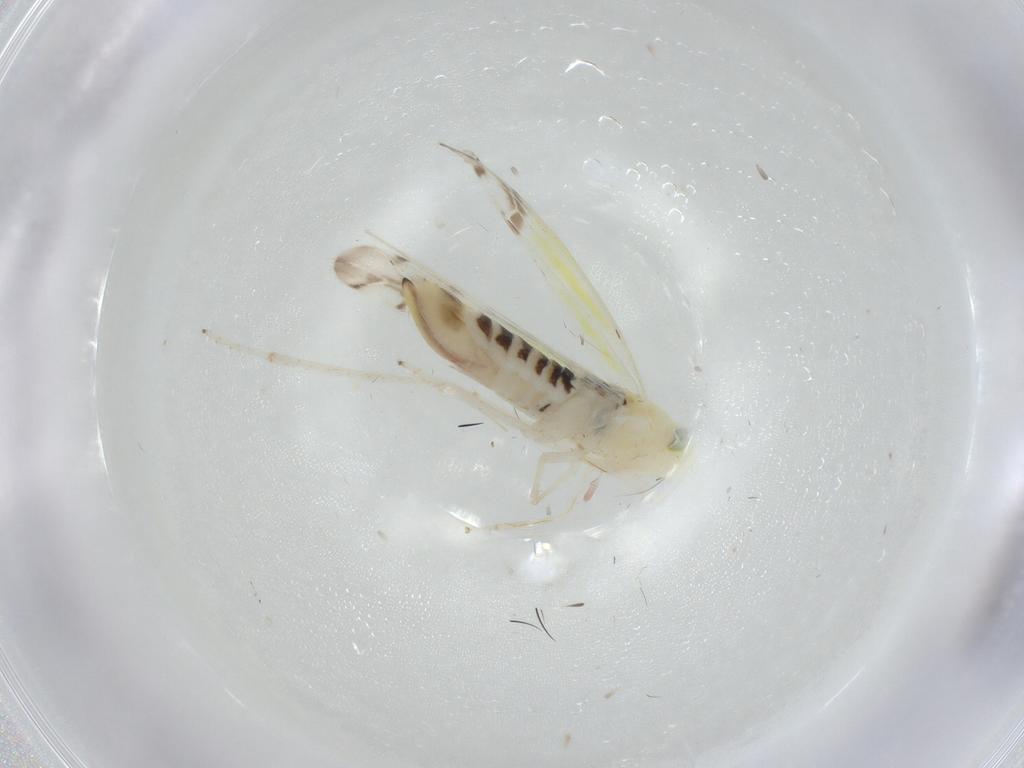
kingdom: Animalia
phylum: Arthropoda
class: Insecta
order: Hemiptera
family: Cicadellidae
